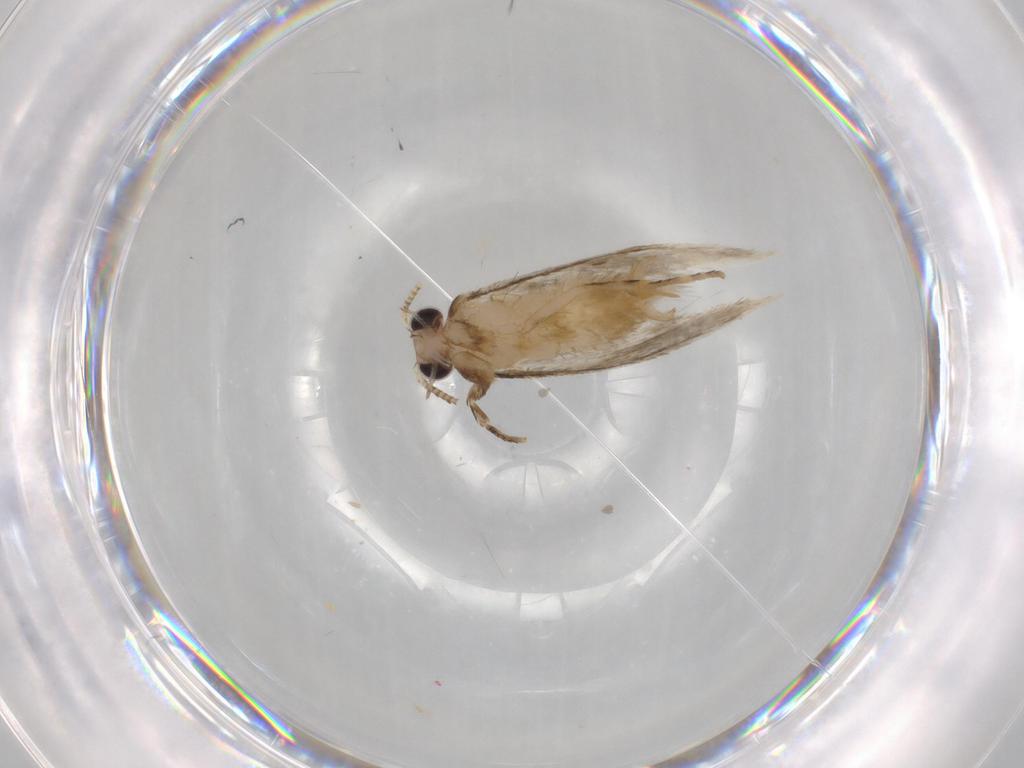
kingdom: Animalia
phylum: Arthropoda
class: Insecta
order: Lepidoptera
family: Tineidae
